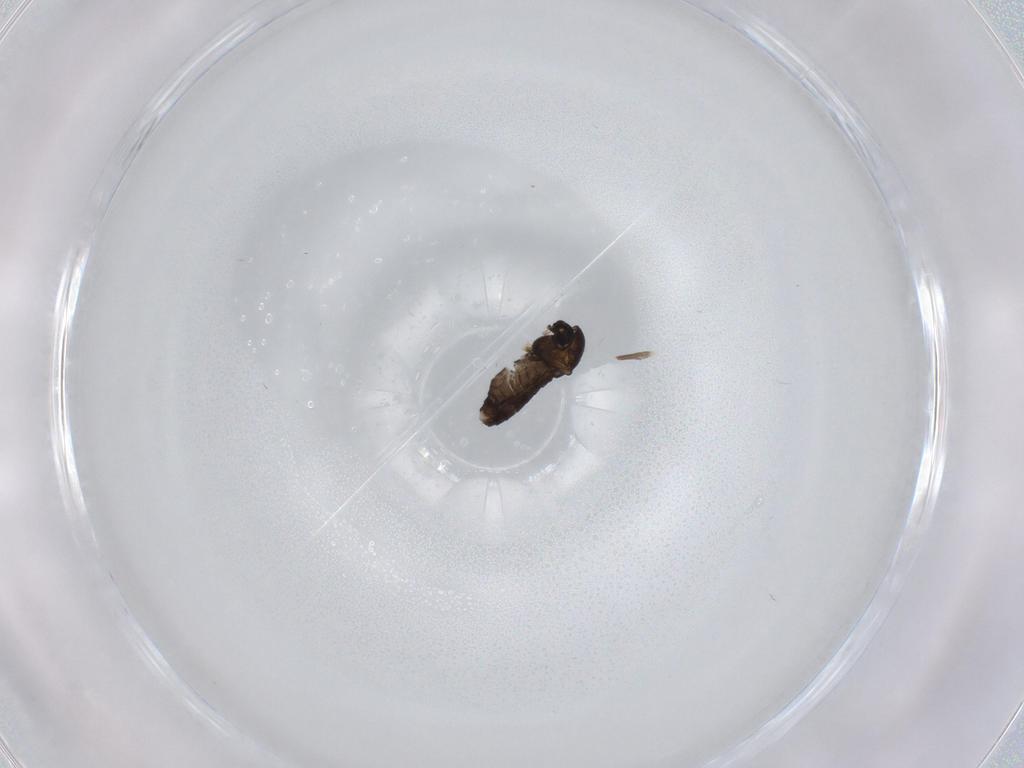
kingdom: Animalia
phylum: Arthropoda
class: Insecta
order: Diptera
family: Chironomidae
